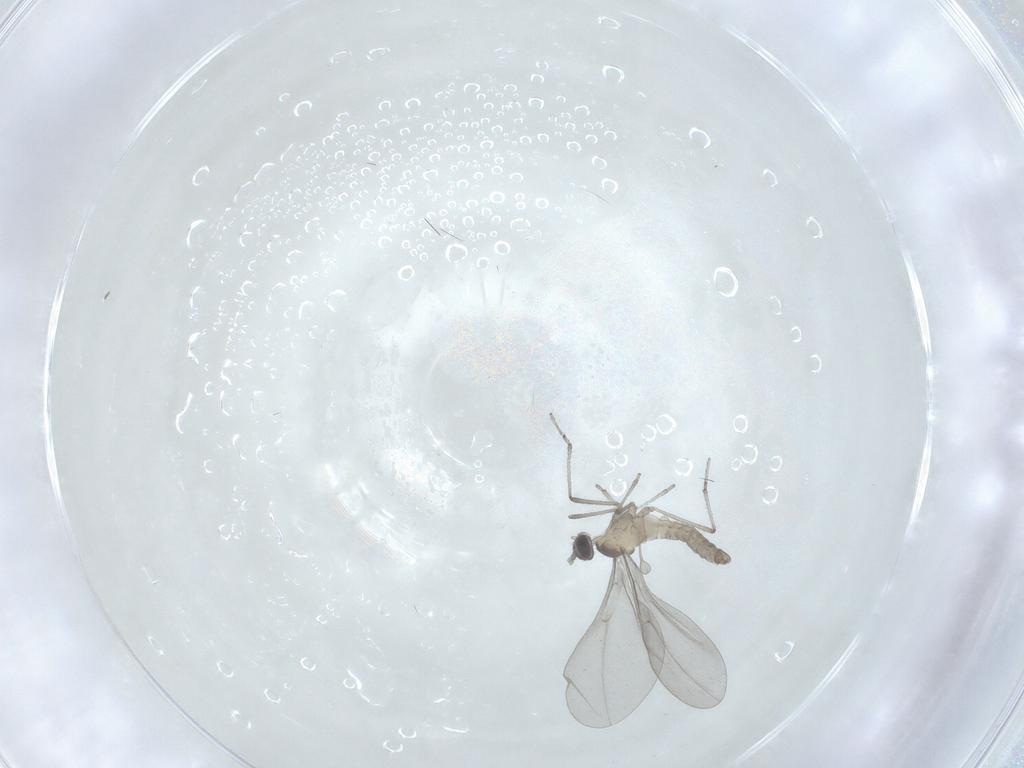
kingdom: Animalia
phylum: Arthropoda
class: Insecta
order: Diptera
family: Cecidomyiidae
